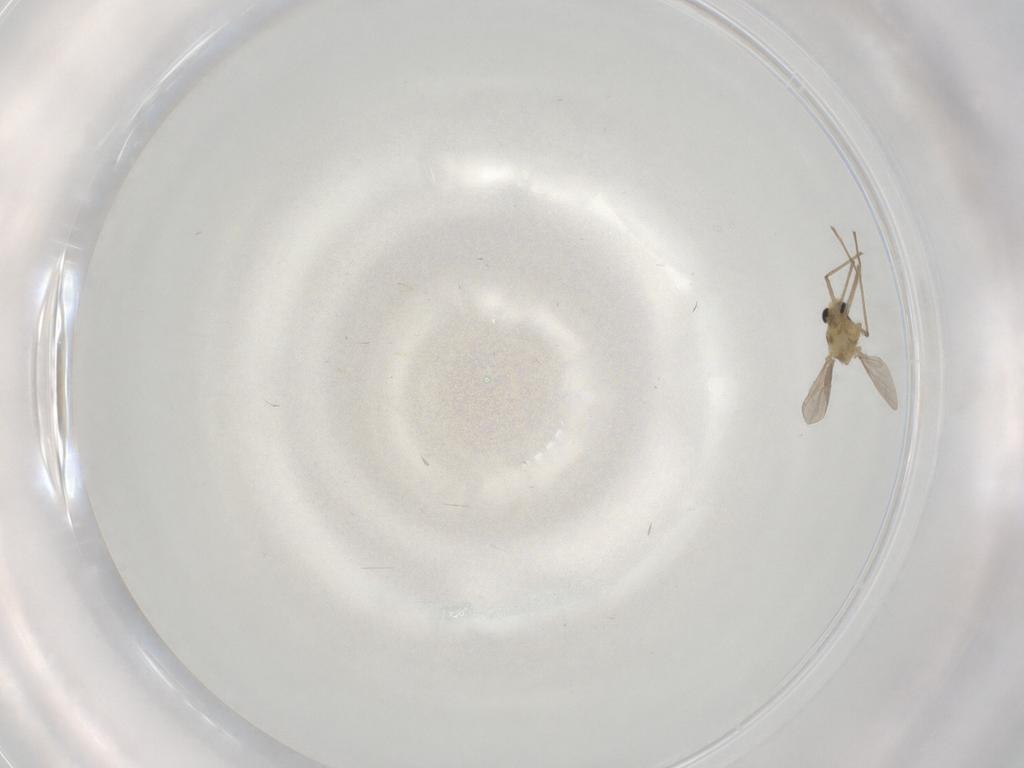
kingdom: Animalia
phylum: Arthropoda
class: Insecta
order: Diptera
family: Chironomidae
